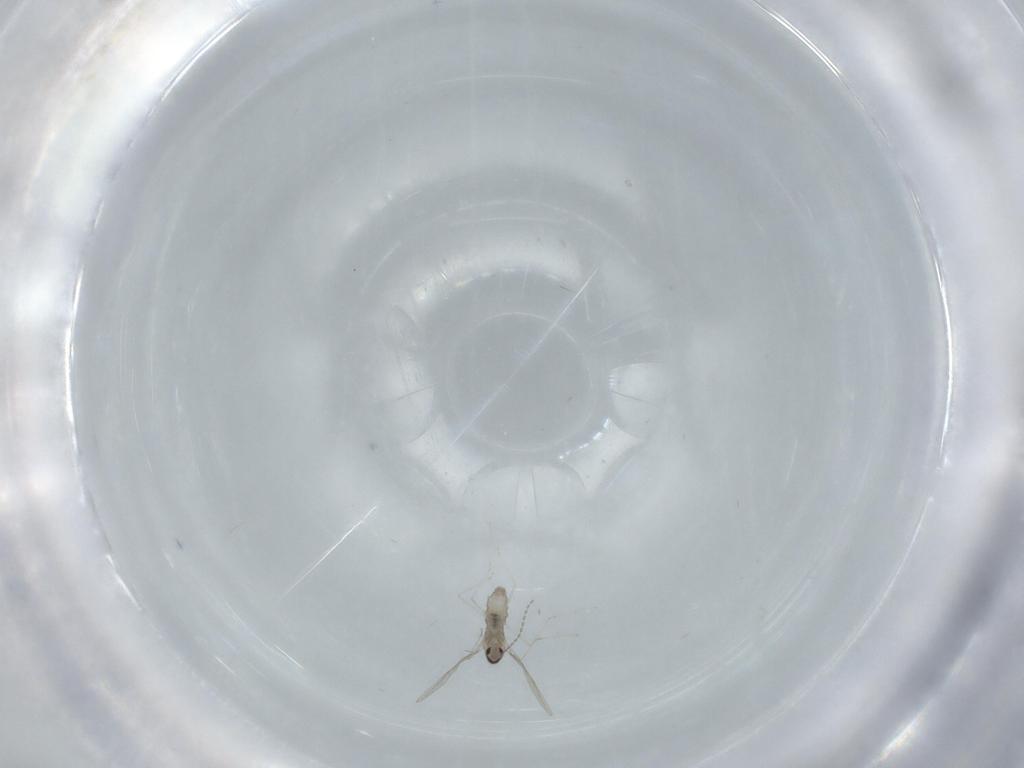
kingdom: Animalia
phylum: Arthropoda
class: Insecta
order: Diptera
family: Cecidomyiidae
